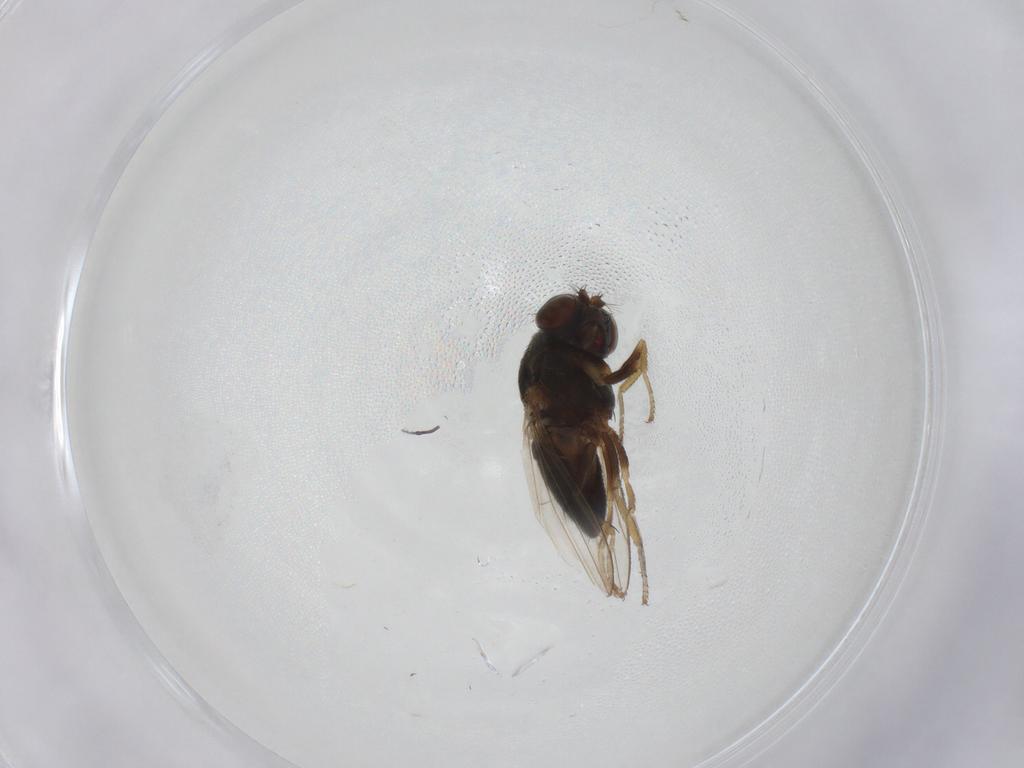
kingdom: Animalia
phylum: Arthropoda
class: Insecta
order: Diptera
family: Ephydridae
